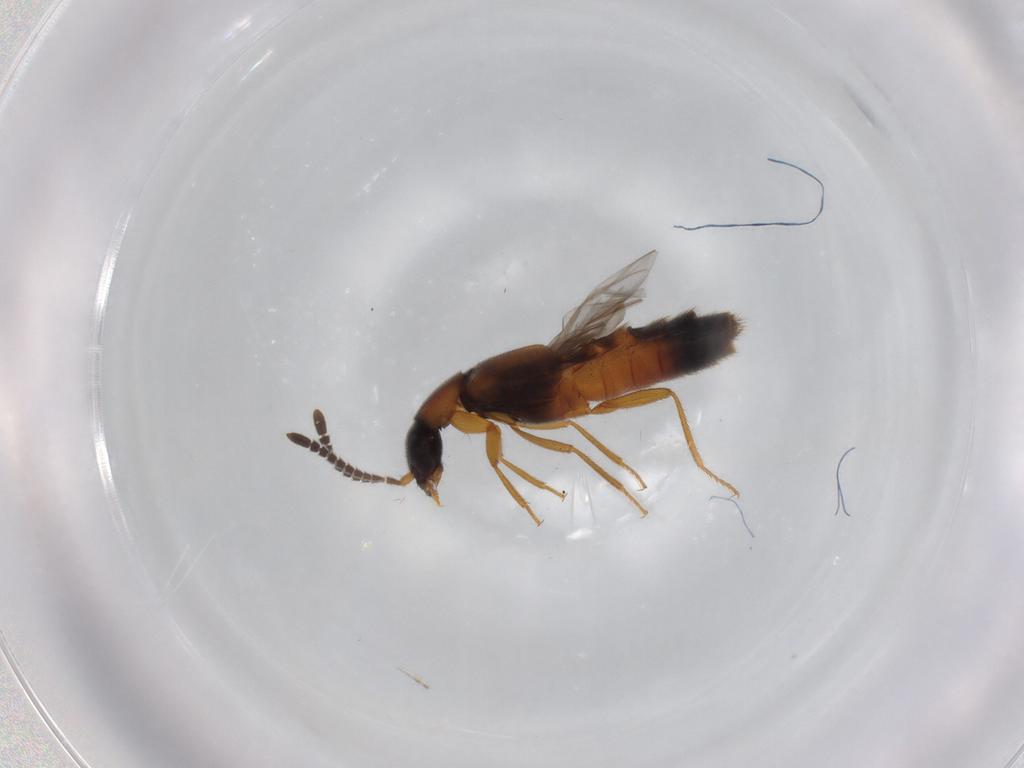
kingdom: Animalia
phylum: Arthropoda
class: Insecta
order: Coleoptera
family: Staphylinidae
